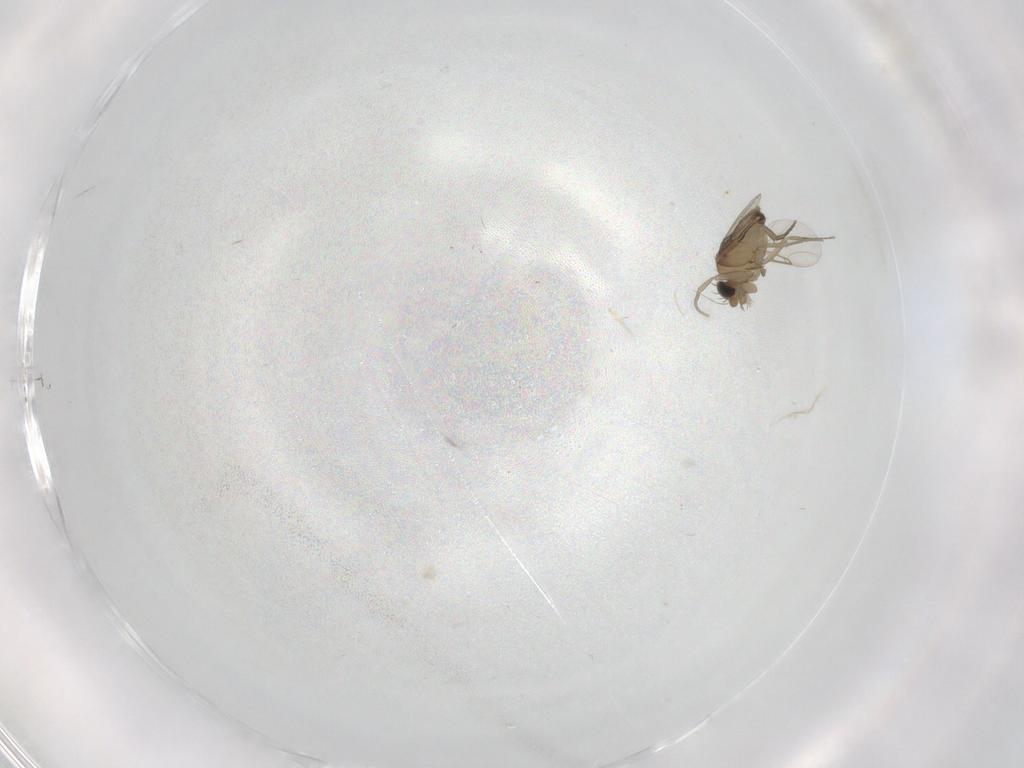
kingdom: Animalia
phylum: Arthropoda
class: Insecta
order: Diptera
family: Phoridae
